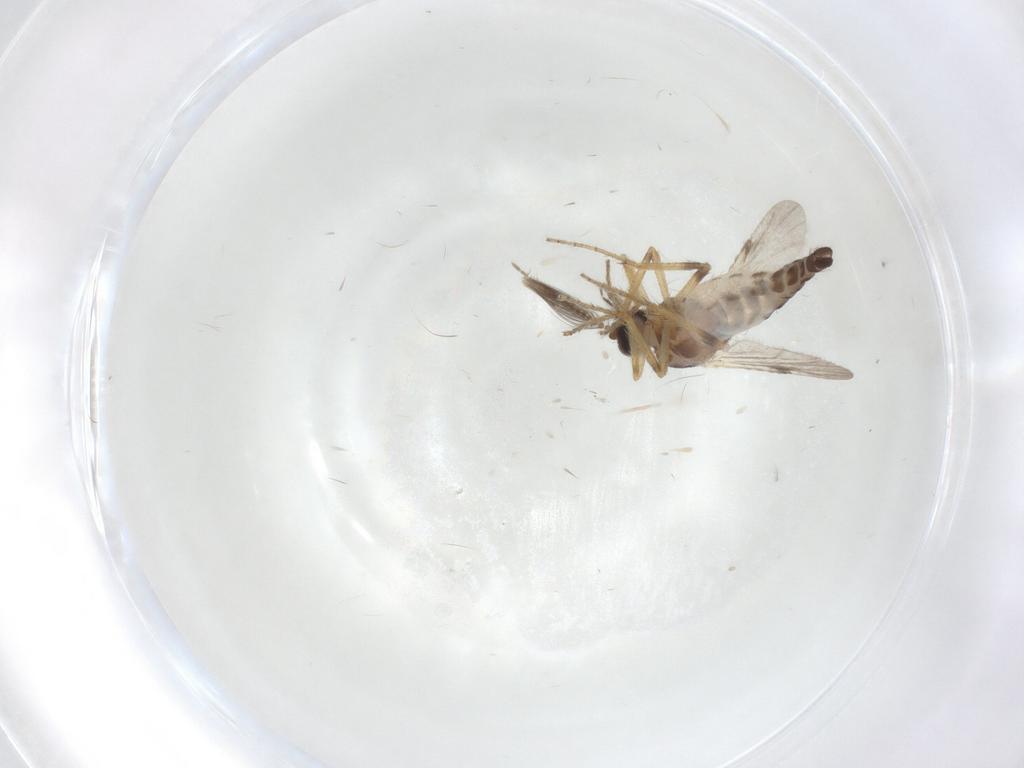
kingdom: Animalia
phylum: Arthropoda
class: Insecta
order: Diptera
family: Ceratopogonidae
